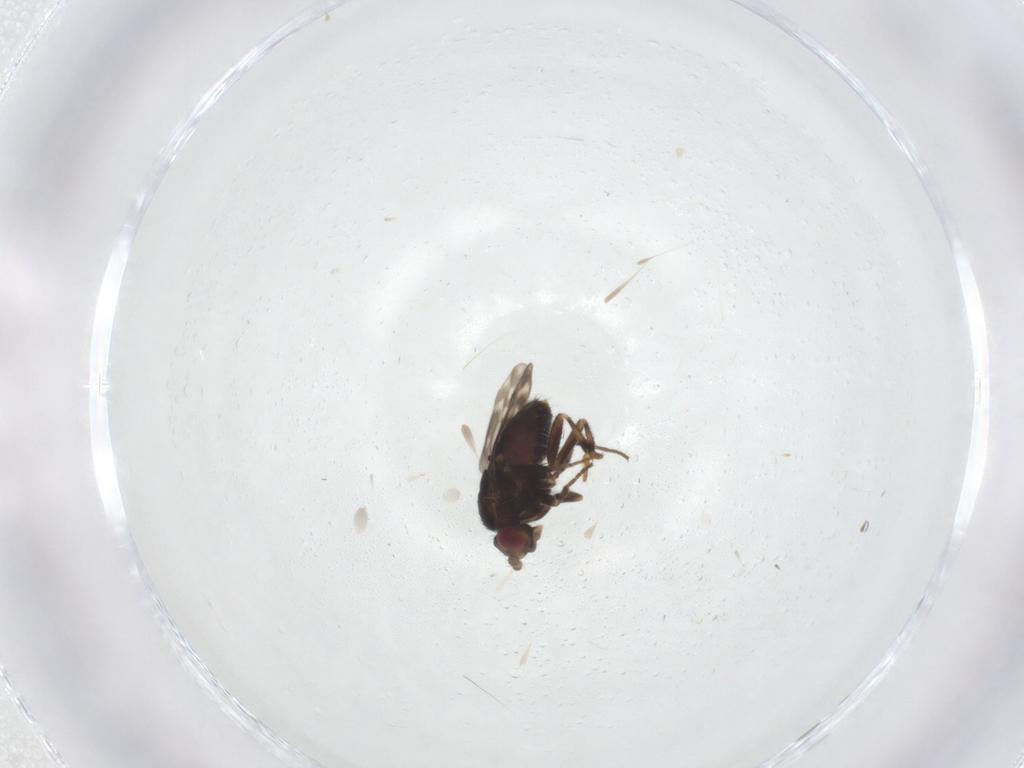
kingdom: Animalia
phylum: Arthropoda
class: Insecta
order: Diptera
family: Sphaeroceridae
